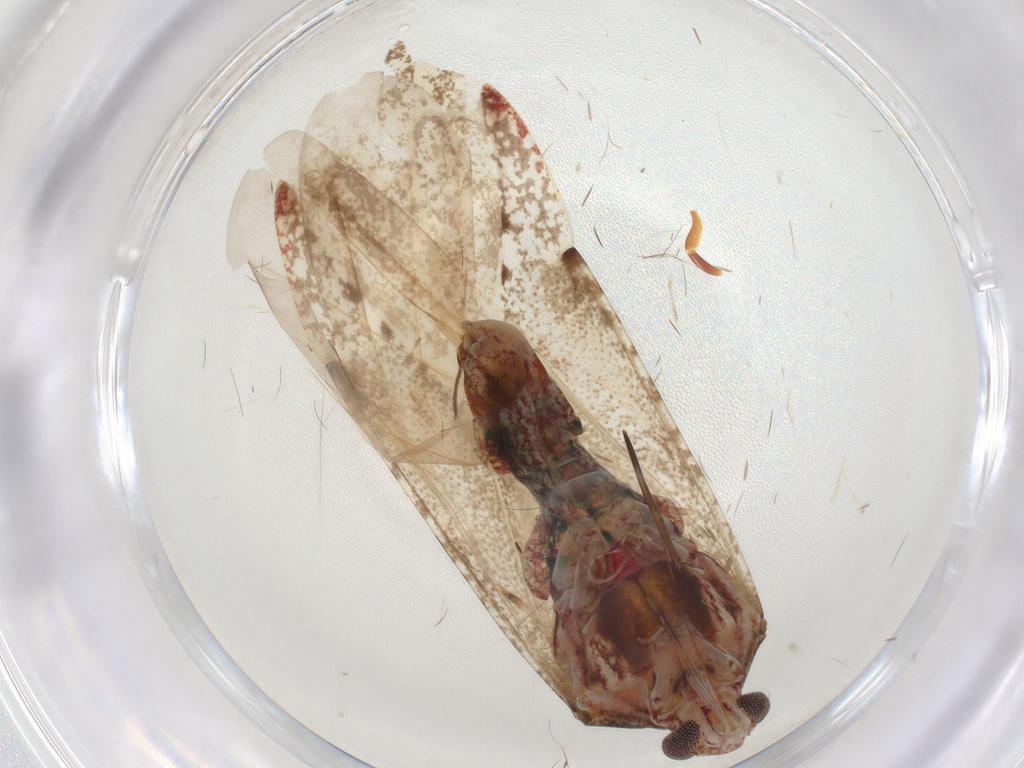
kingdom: Animalia
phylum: Arthropoda
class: Insecta
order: Hemiptera
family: Miridae
